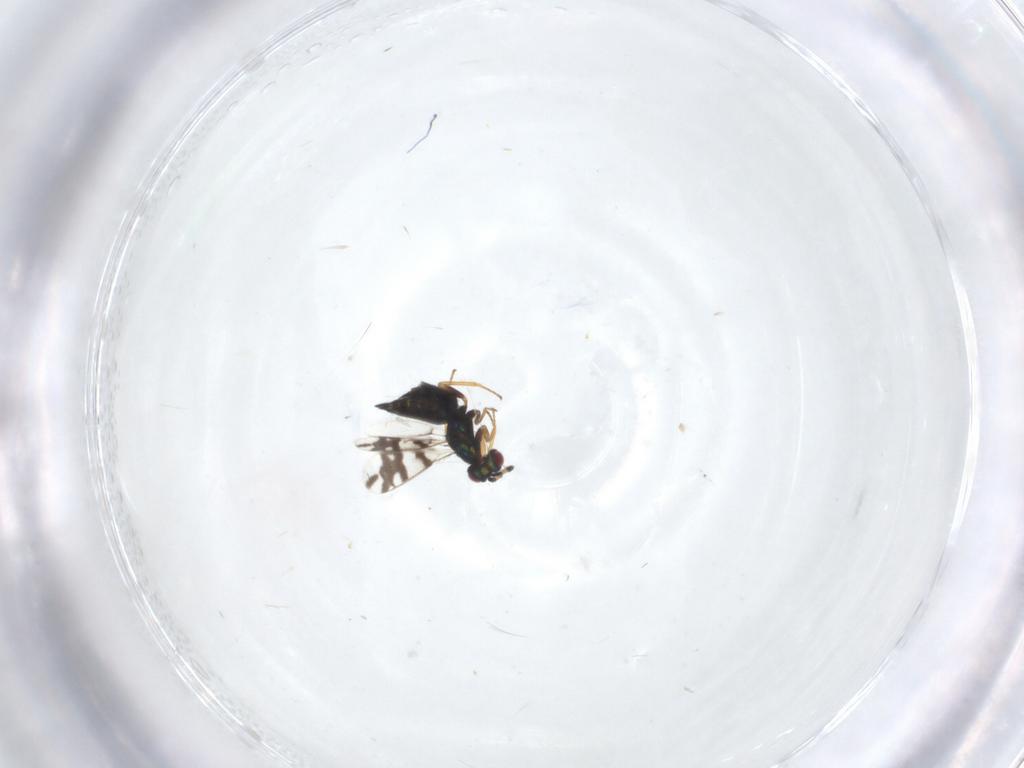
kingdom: Animalia
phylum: Arthropoda
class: Insecta
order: Hymenoptera
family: Eulophidae
